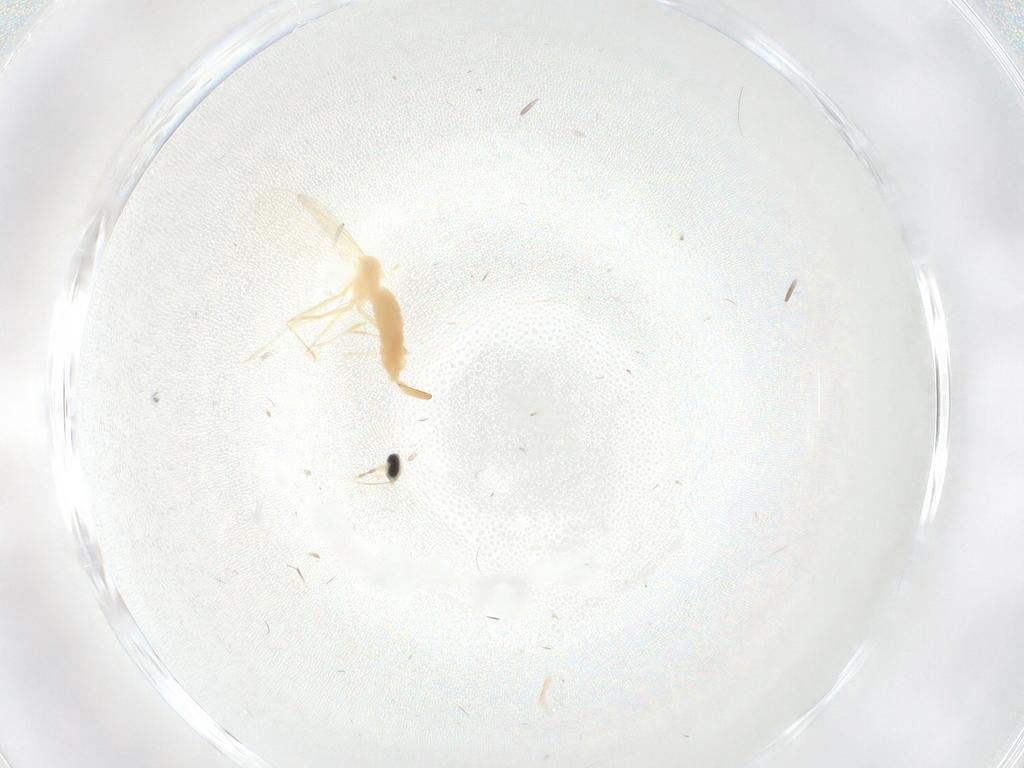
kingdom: Animalia
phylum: Arthropoda
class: Insecta
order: Diptera
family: Cecidomyiidae
